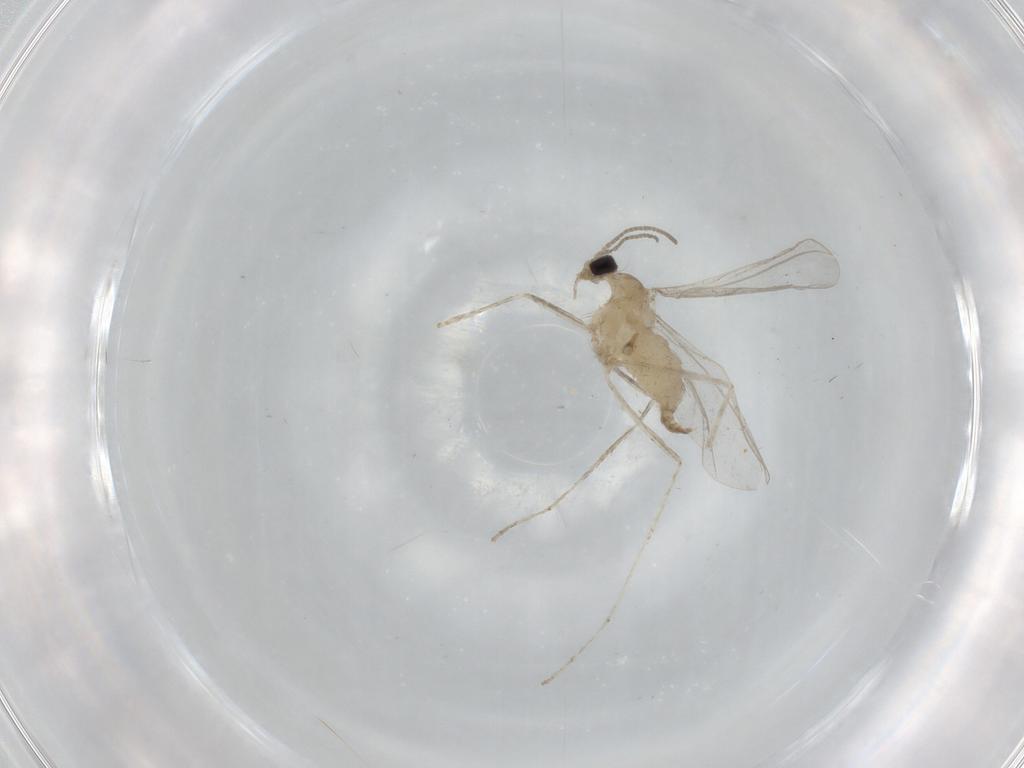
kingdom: Animalia
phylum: Arthropoda
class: Insecta
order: Diptera
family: Cecidomyiidae
